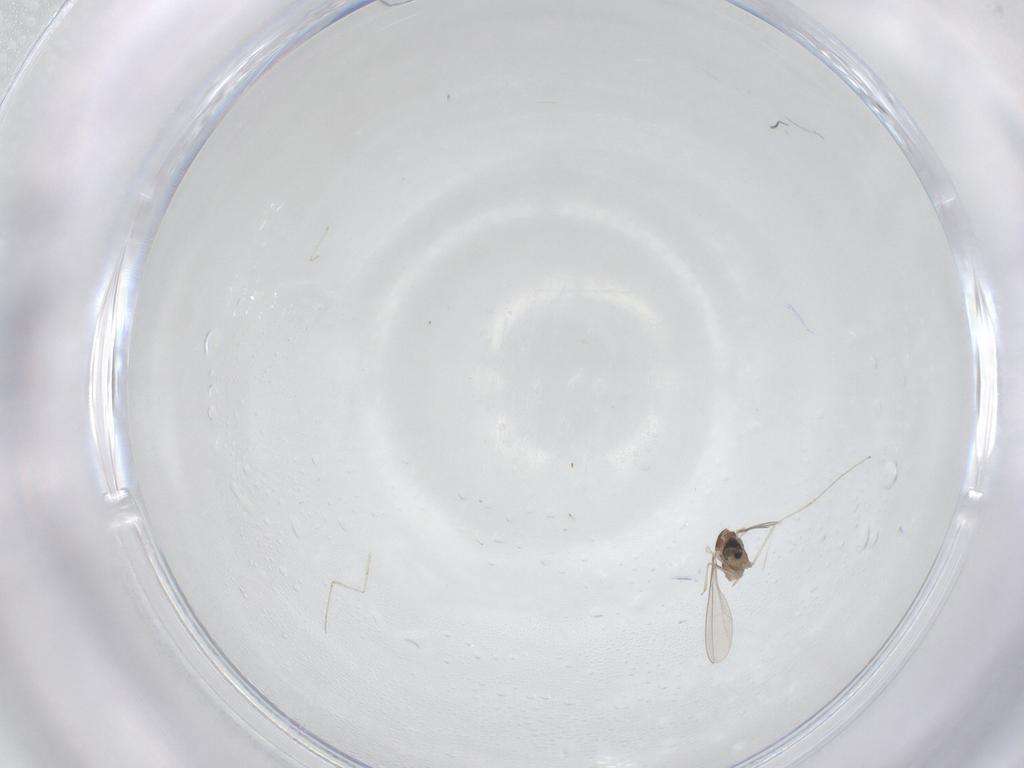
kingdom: Animalia
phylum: Arthropoda
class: Insecta
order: Diptera
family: Cecidomyiidae
